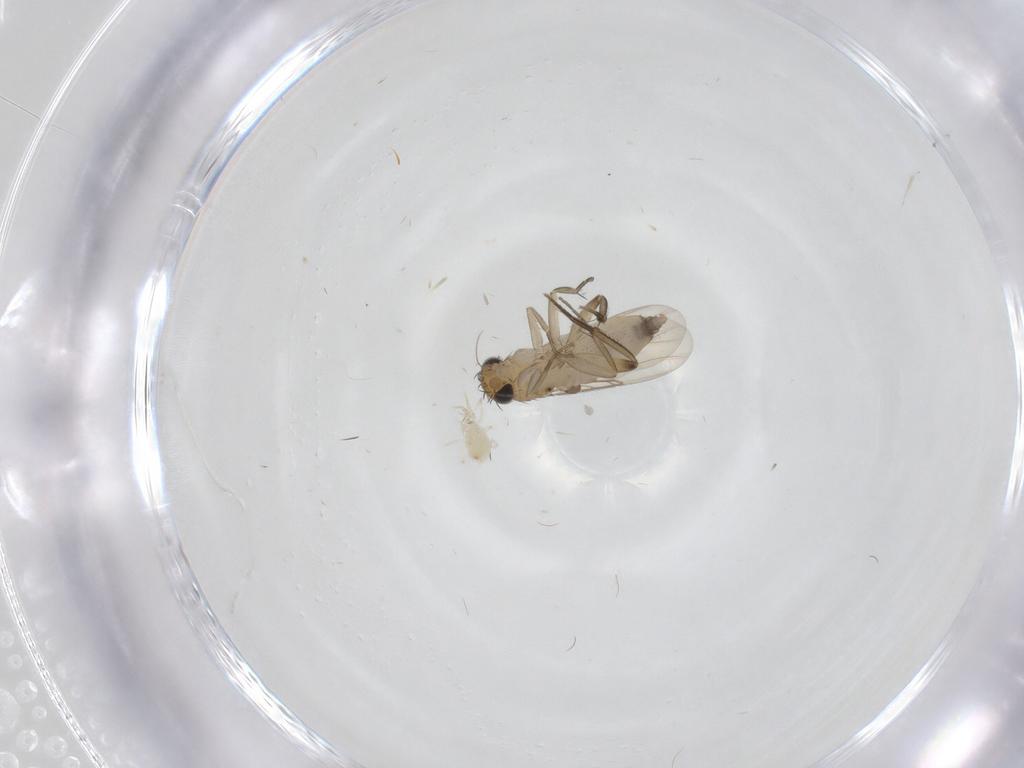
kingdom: Animalia
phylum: Arthropoda
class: Insecta
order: Diptera
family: Phoridae
